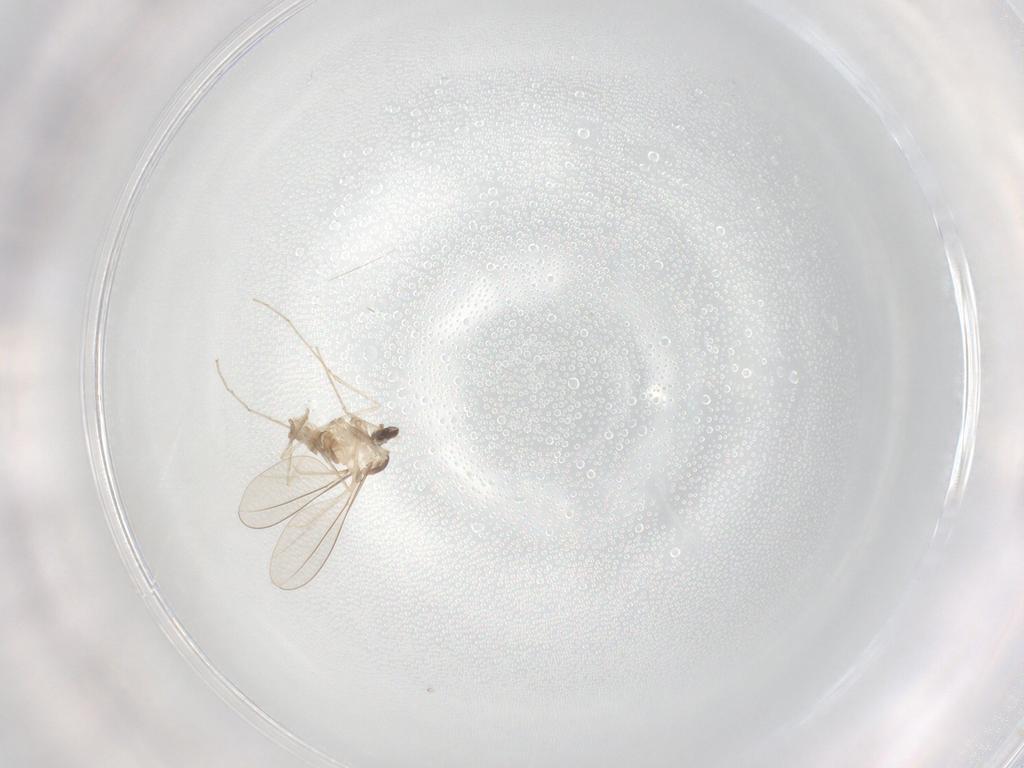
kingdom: Animalia
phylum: Arthropoda
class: Insecta
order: Diptera
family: Cecidomyiidae
